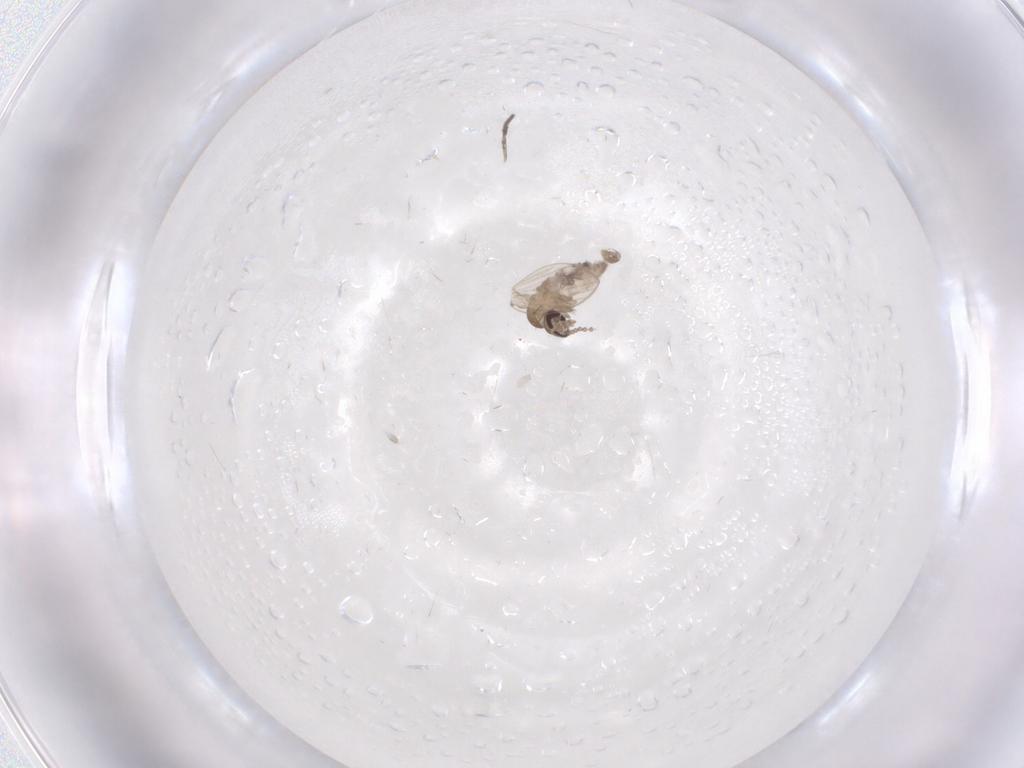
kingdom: Animalia
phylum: Arthropoda
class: Insecta
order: Diptera
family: Psychodidae
